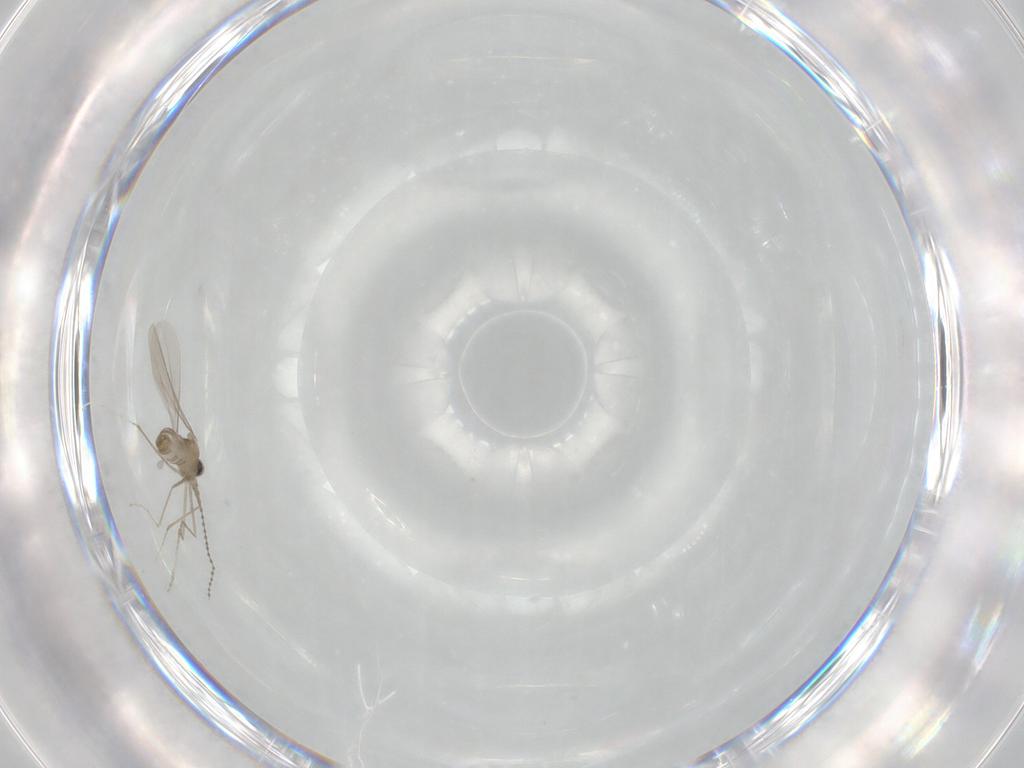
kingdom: Animalia
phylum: Arthropoda
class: Insecta
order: Diptera
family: Cecidomyiidae
